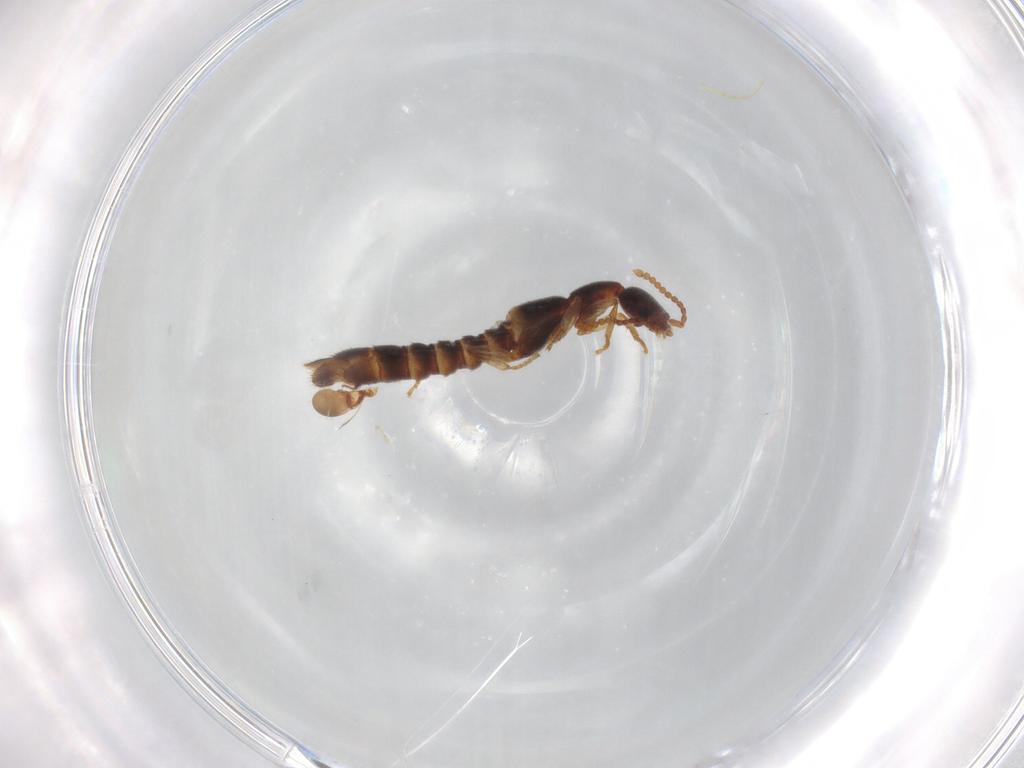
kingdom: Animalia
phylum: Arthropoda
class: Insecta
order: Coleoptera
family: Staphylinidae
